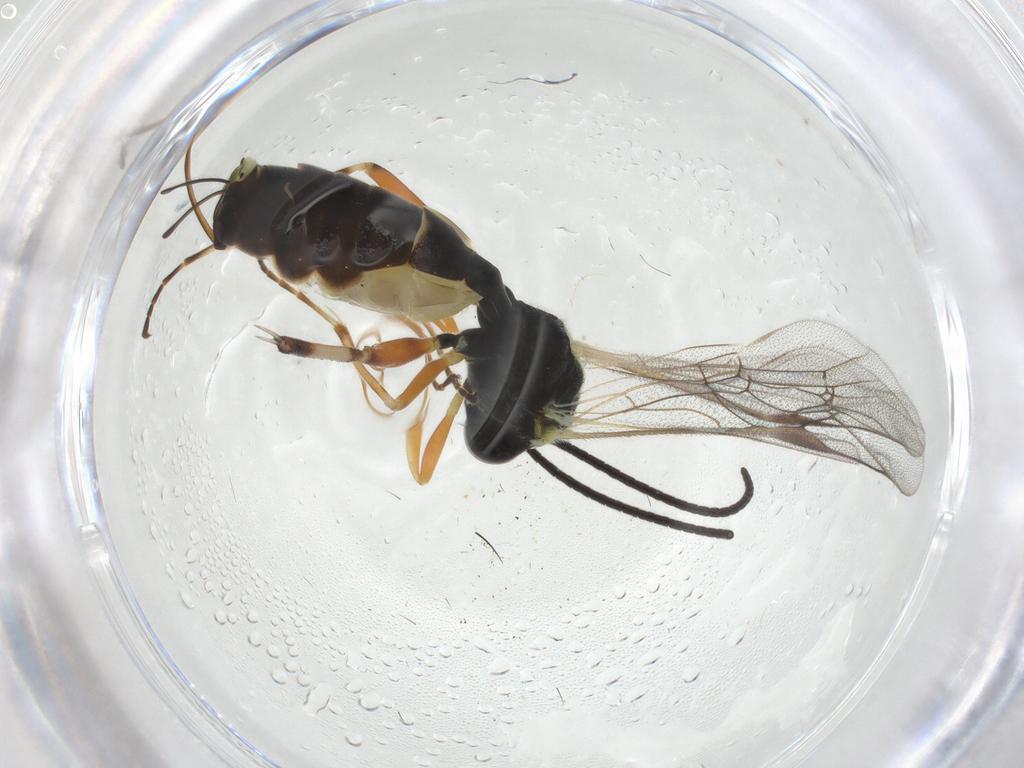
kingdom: Animalia
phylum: Arthropoda
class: Insecta
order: Hymenoptera
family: Ichneumonidae
